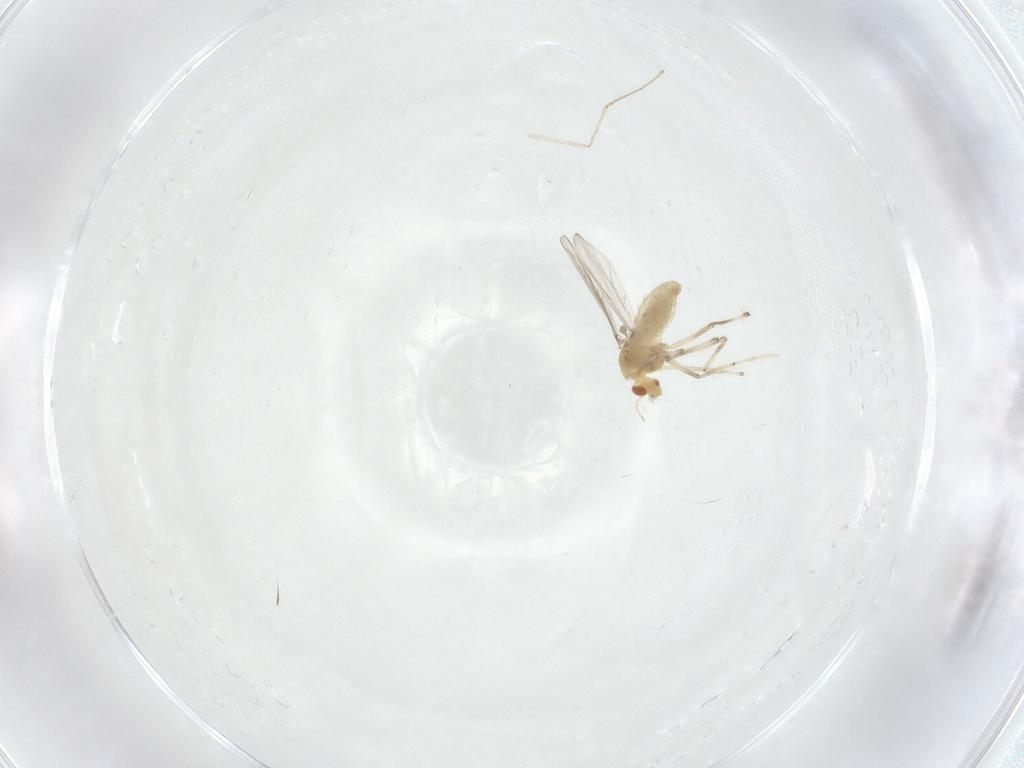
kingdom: Animalia
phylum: Arthropoda
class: Insecta
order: Diptera
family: Cecidomyiidae
